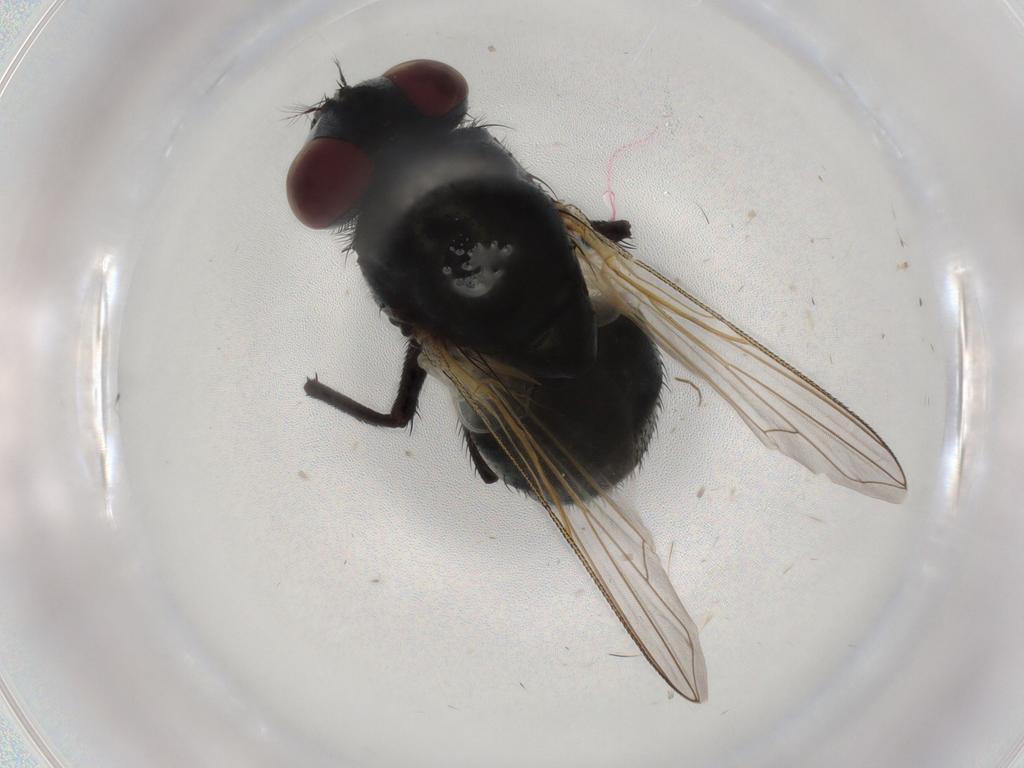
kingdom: Animalia
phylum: Arthropoda
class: Insecta
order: Diptera
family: Muscidae
